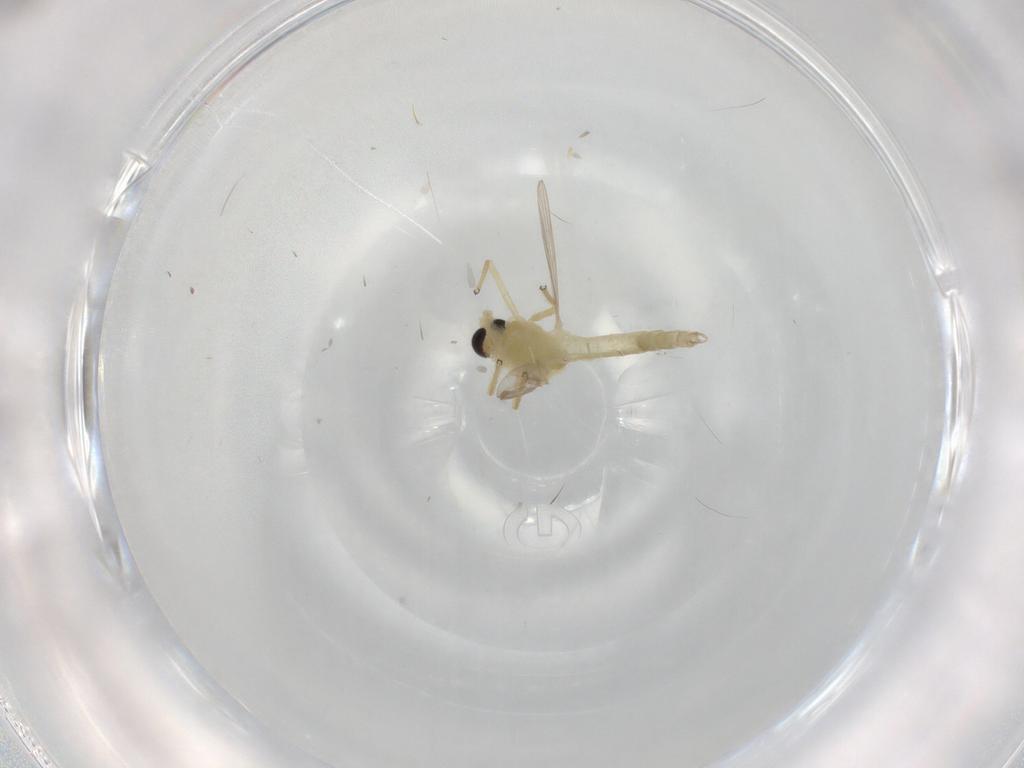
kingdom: Animalia
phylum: Arthropoda
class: Insecta
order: Diptera
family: Chironomidae
